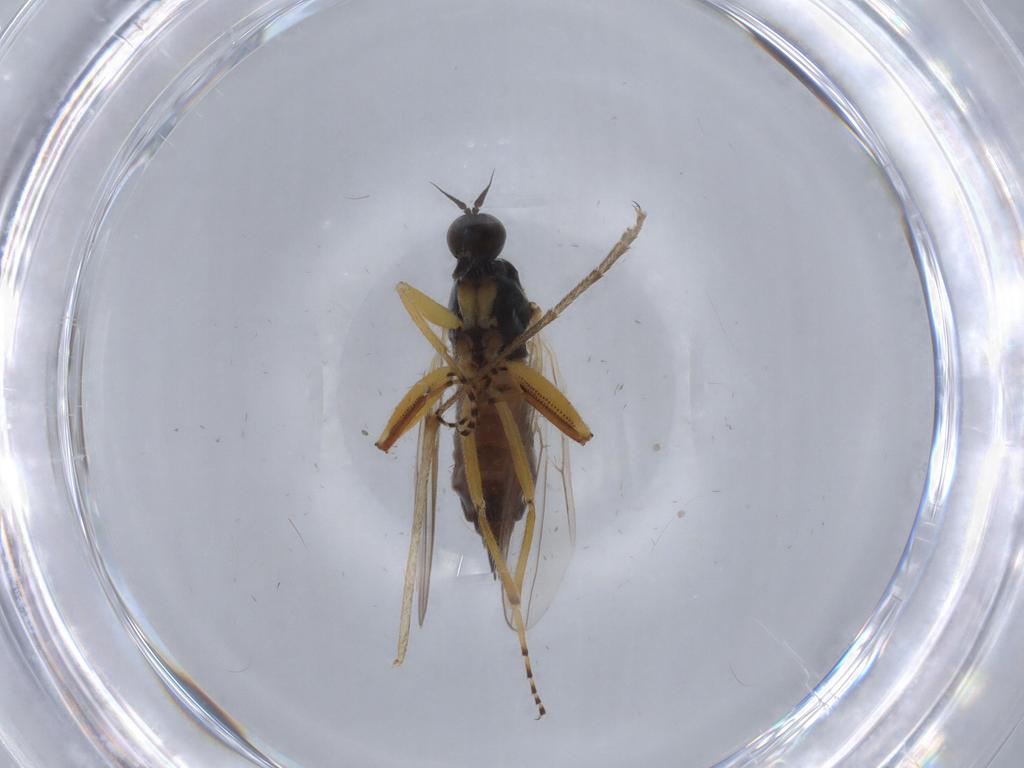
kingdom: Animalia
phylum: Arthropoda
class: Insecta
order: Diptera
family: Hybotidae
